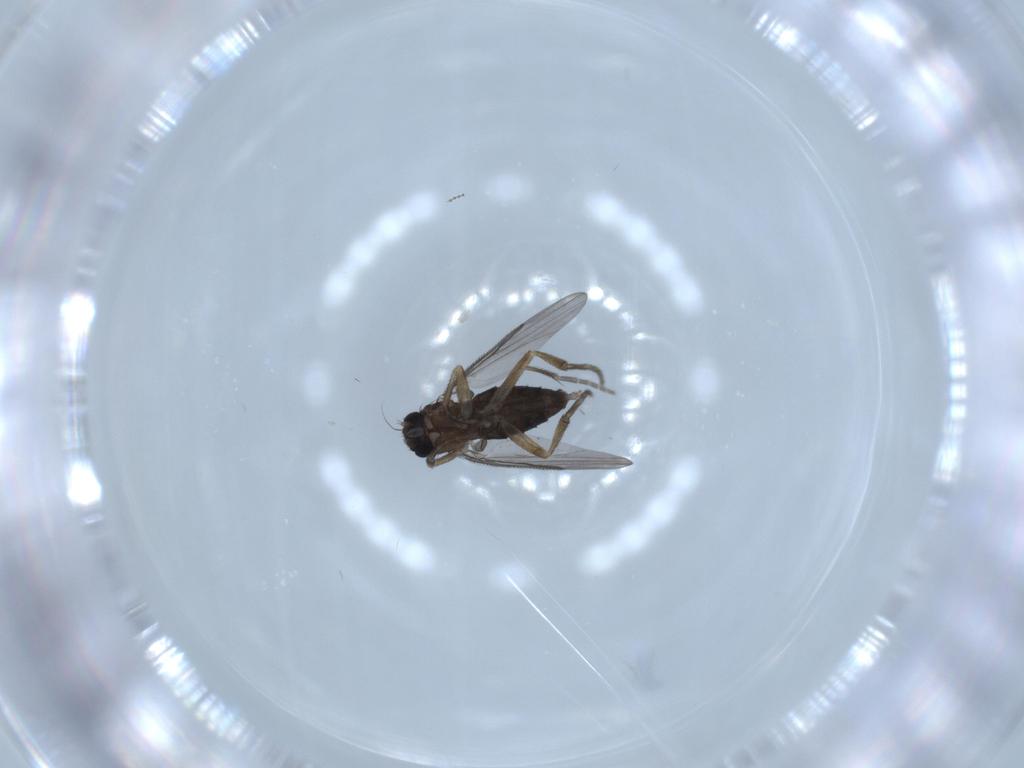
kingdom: Animalia
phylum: Arthropoda
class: Insecta
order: Diptera
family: Phoridae
